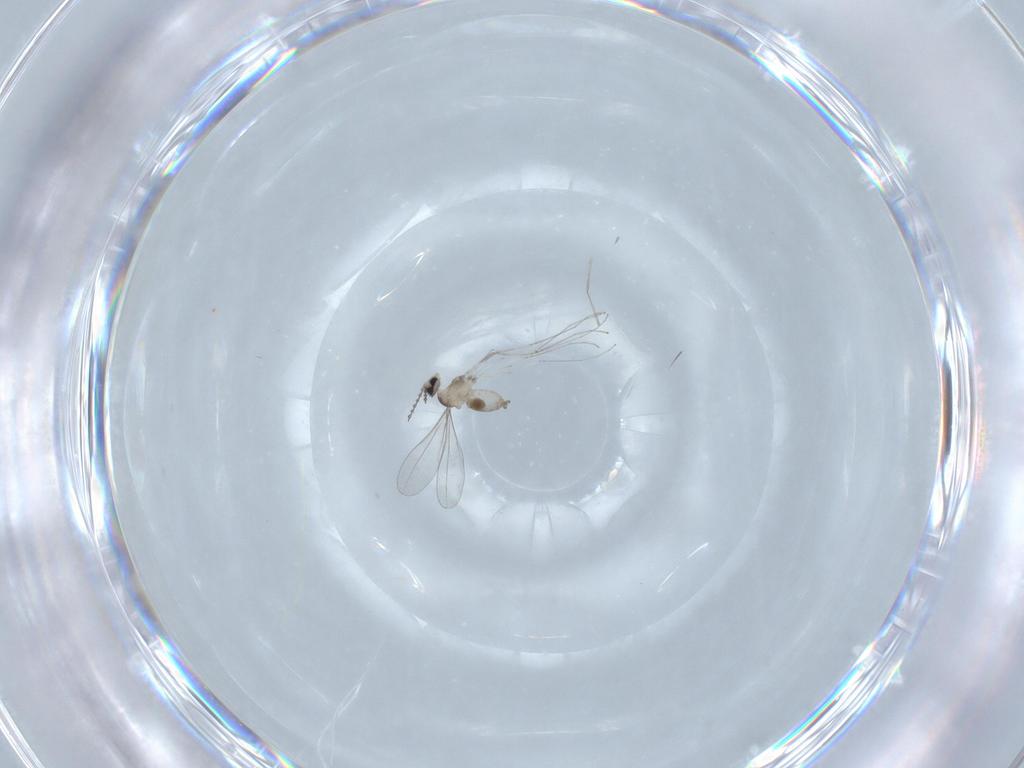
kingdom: Animalia
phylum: Arthropoda
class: Insecta
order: Diptera
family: Cecidomyiidae
